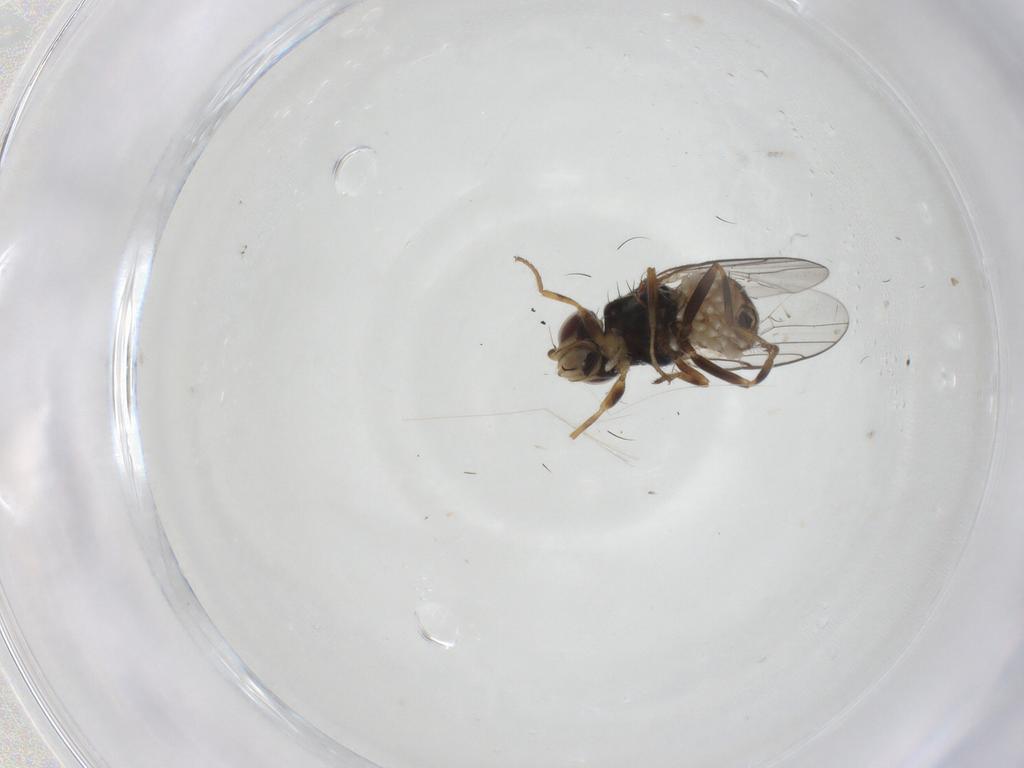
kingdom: Animalia
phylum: Arthropoda
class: Insecta
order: Diptera
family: Chloropidae
